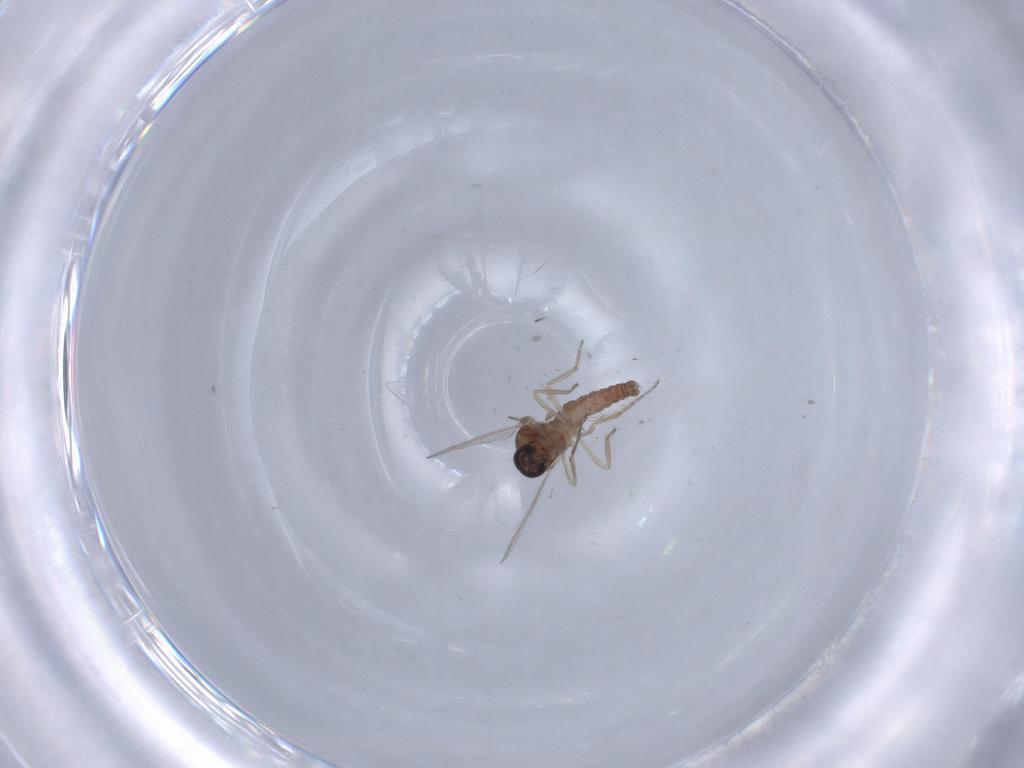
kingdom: Animalia
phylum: Arthropoda
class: Insecta
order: Diptera
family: Ceratopogonidae
